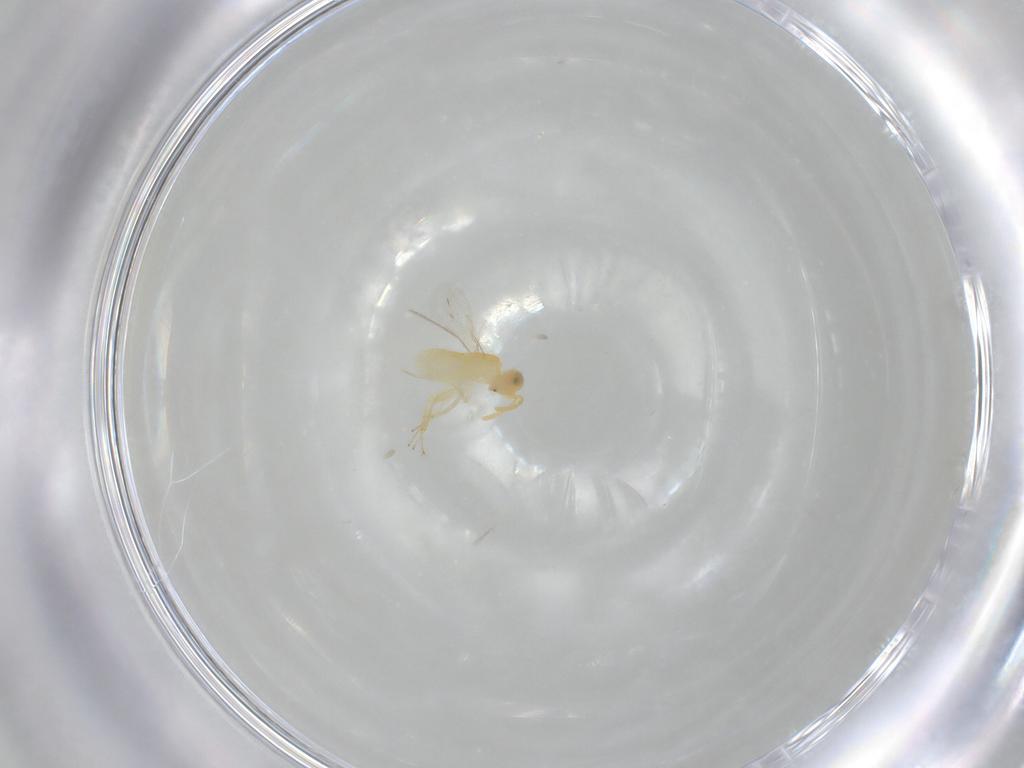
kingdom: Animalia
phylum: Arthropoda
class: Insecta
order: Hymenoptera
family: Aphelinidae
